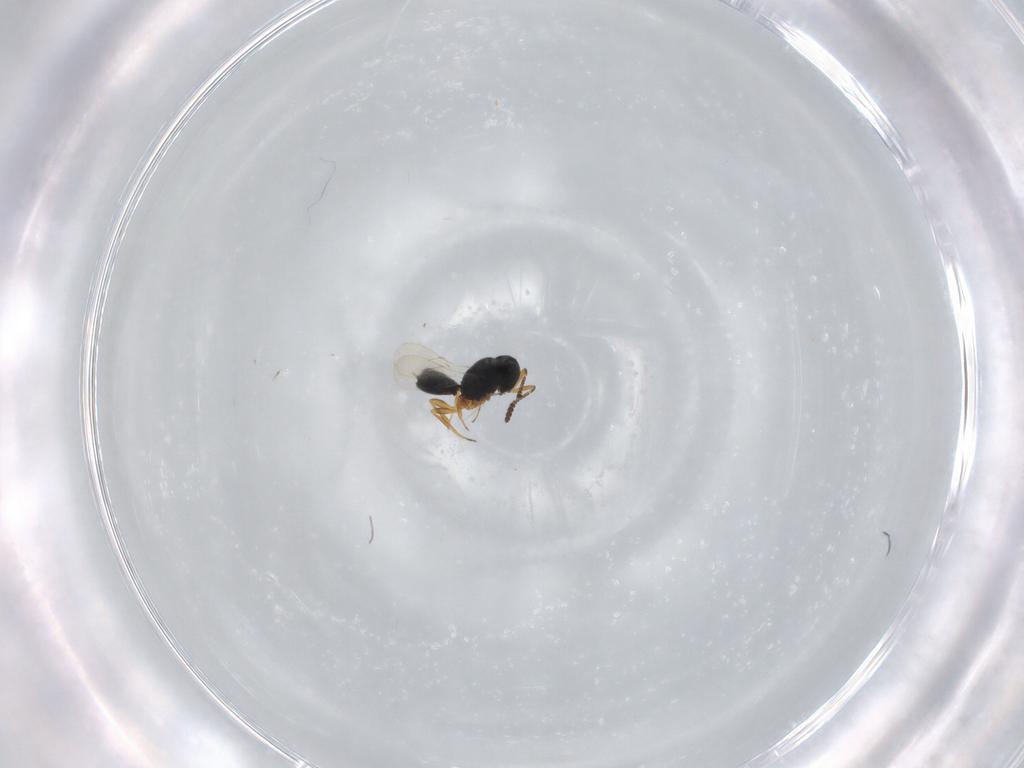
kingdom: Animalia
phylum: Arthropoda
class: Insecta
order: Hymenoptera
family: Scelionidae
